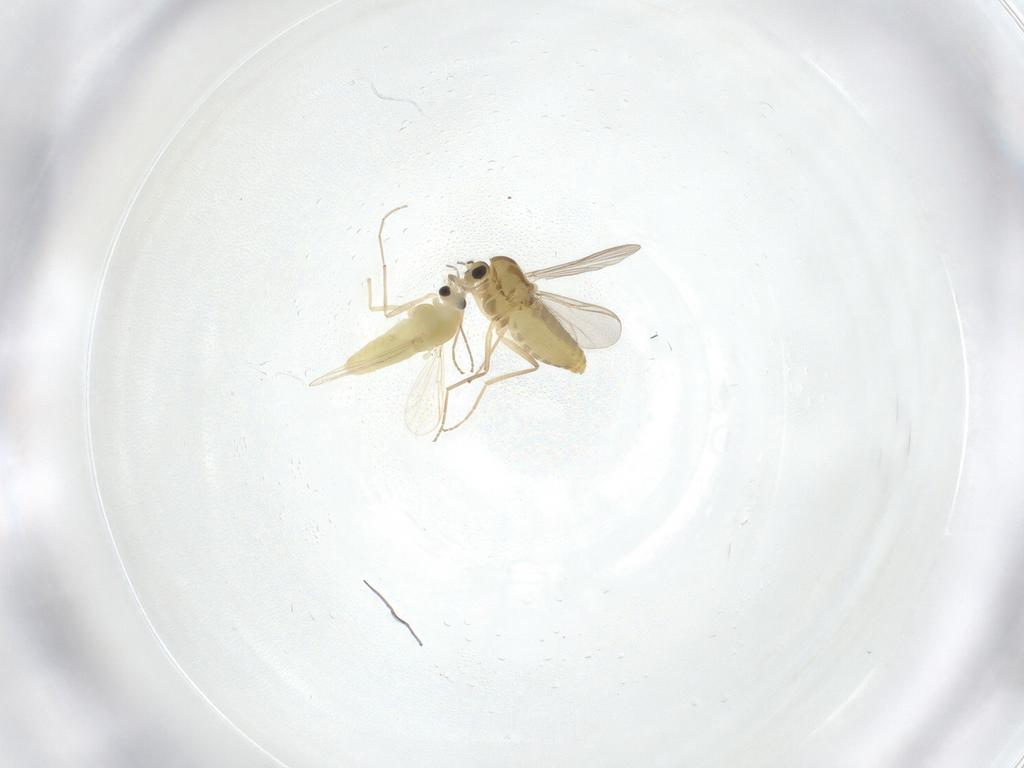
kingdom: Animalia
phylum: Arthropoda
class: Insecta
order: Diptera
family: Chironomidae
